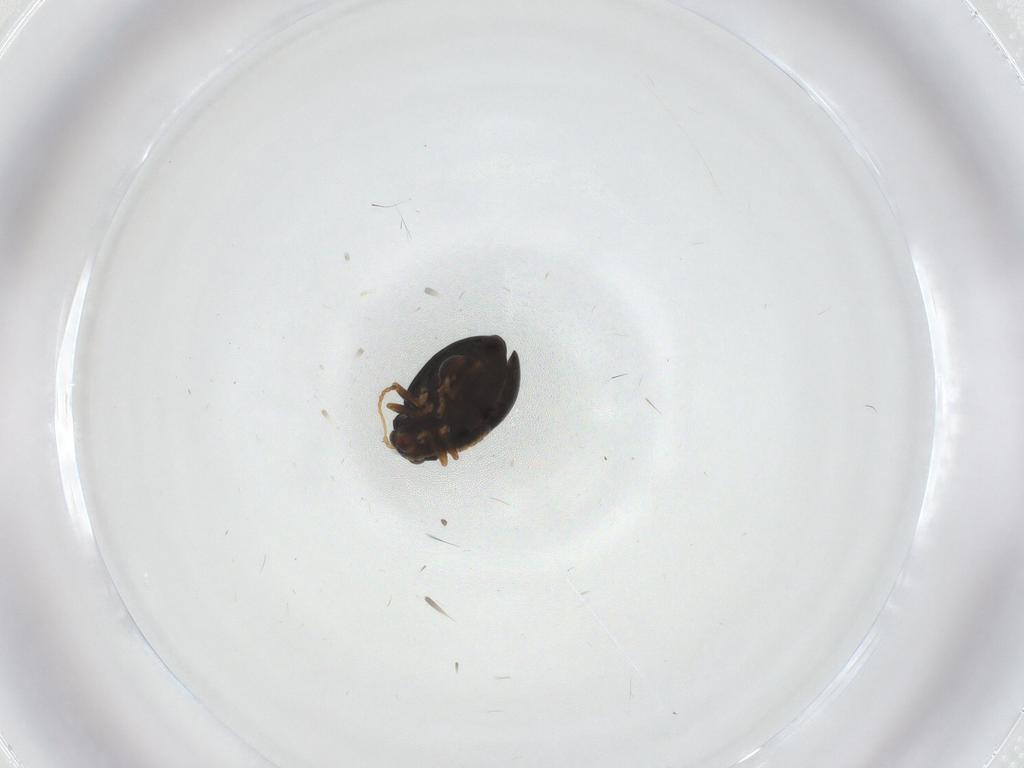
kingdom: Animalia
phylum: Arthropoda
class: Insecta
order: Coleoptera
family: Chrysomelidae
